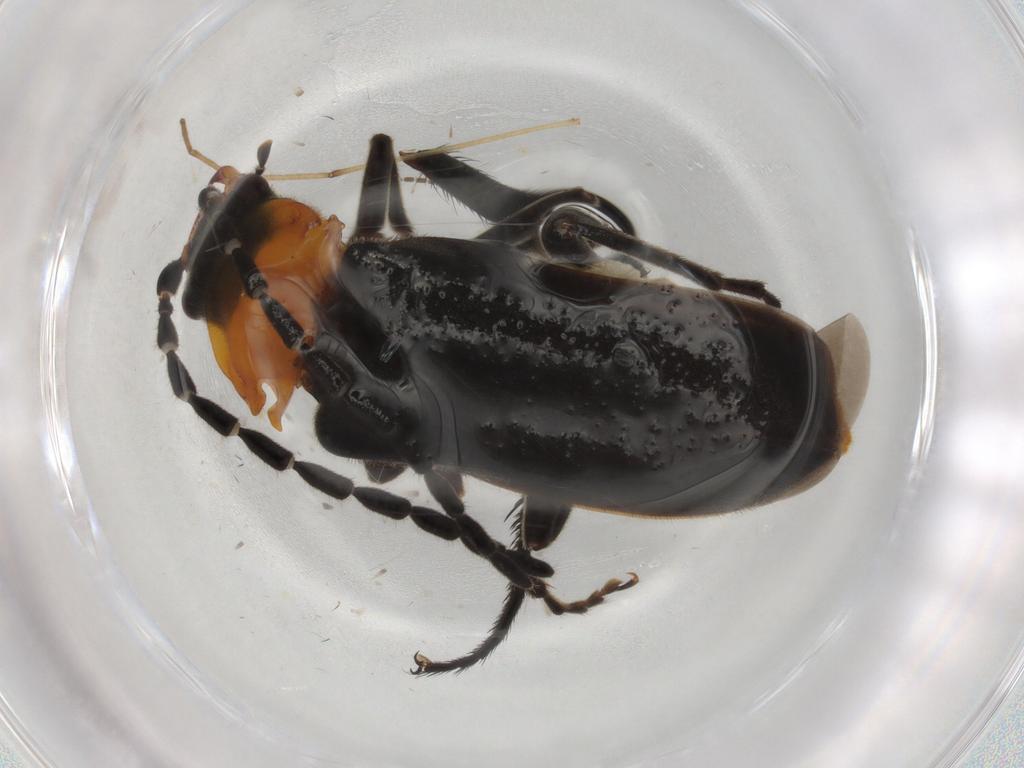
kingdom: Animalia
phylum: Arthropoda
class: Insecta
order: Coleoptera
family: Cantharidae
